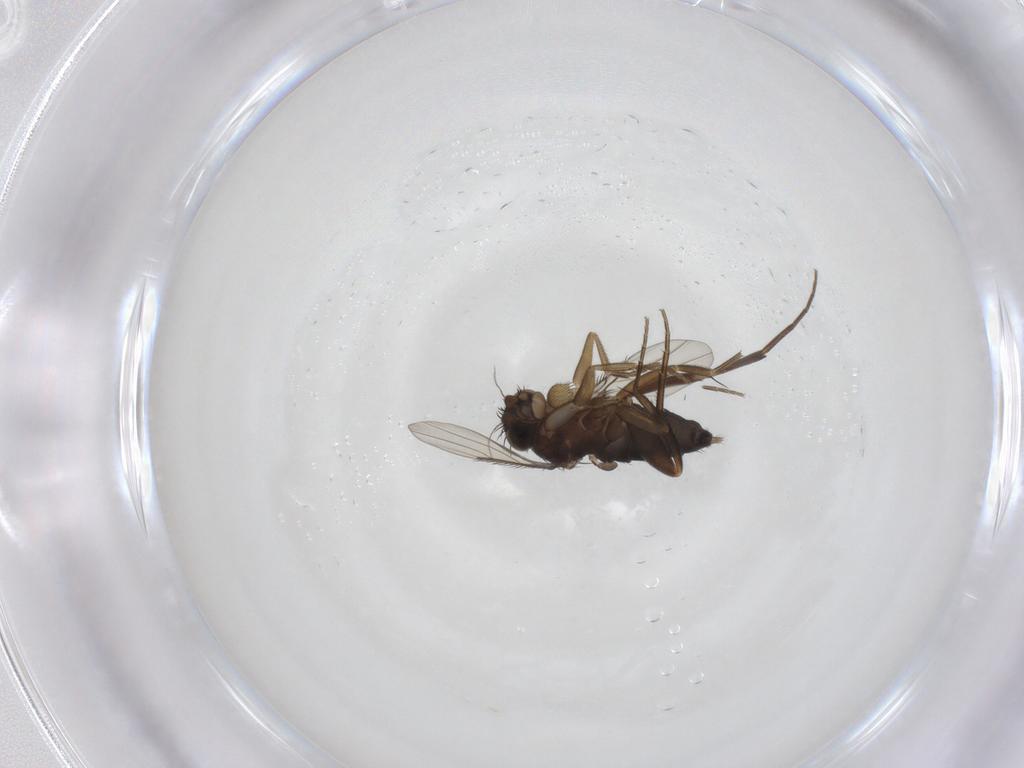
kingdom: Animalia
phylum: Arthropoda
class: Insecta
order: Diptera
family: Phoridae
